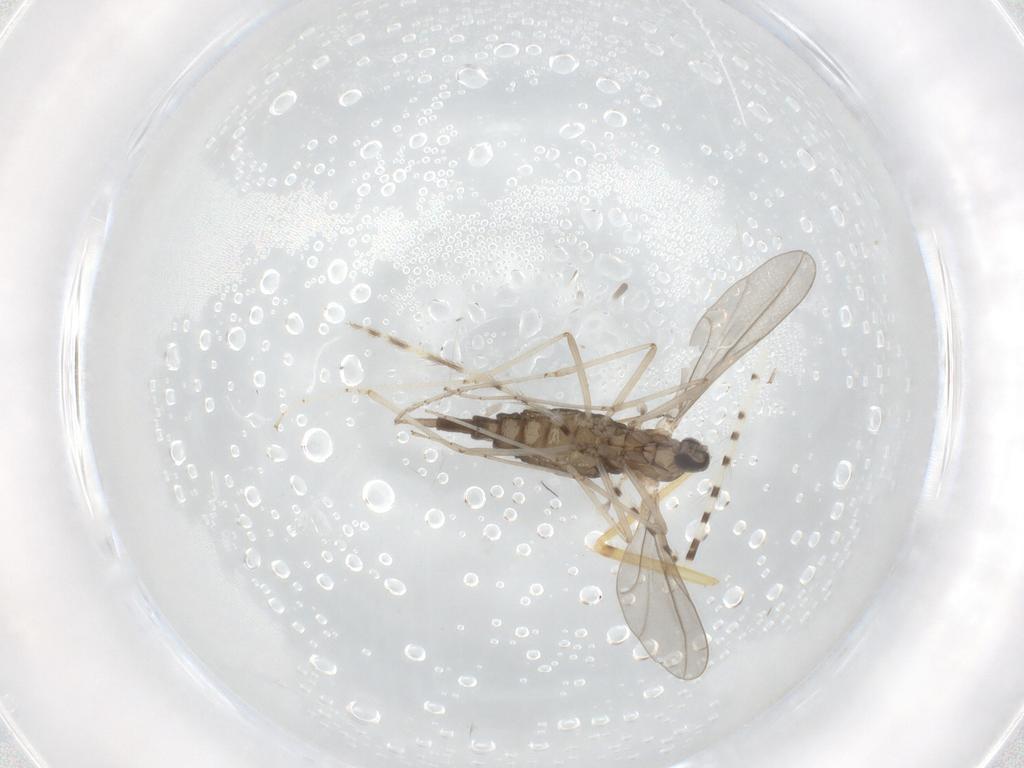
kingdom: Animalia
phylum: Arthropoda
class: Insecta
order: Diptera
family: Cecidomyiidae
